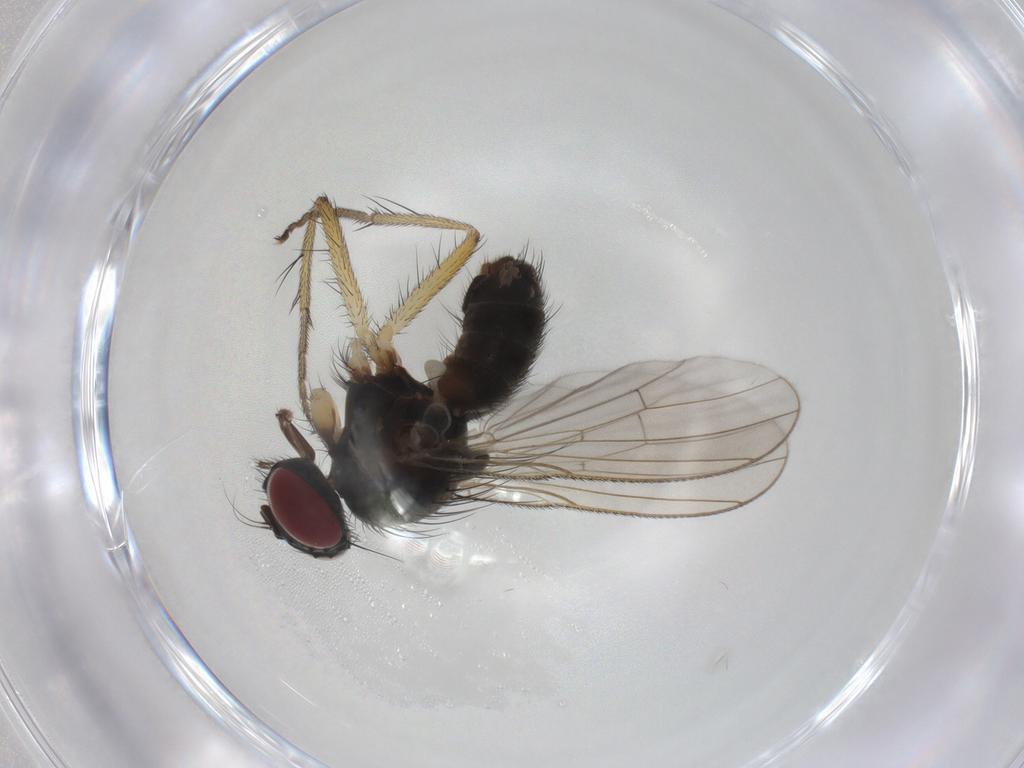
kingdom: Animalia
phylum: Arthropoda
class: Insecta
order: Diptera
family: Muscidae
